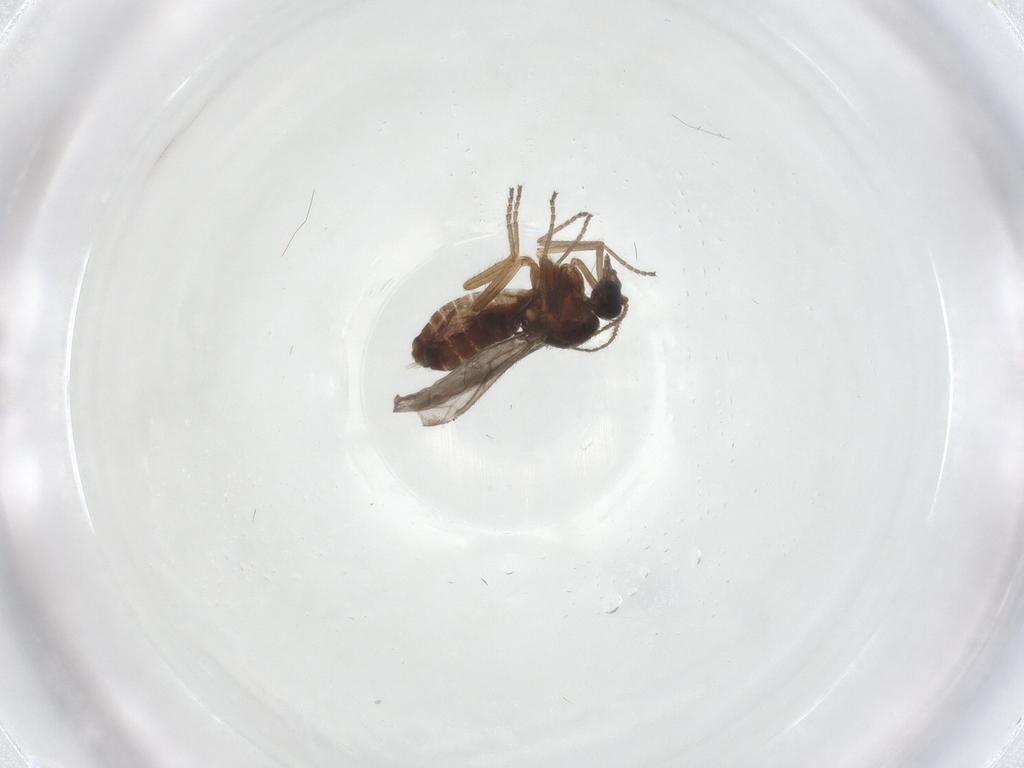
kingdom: Animalia
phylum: Arthropoda
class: Insecta
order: Diptera
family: Ceratopogonidae
